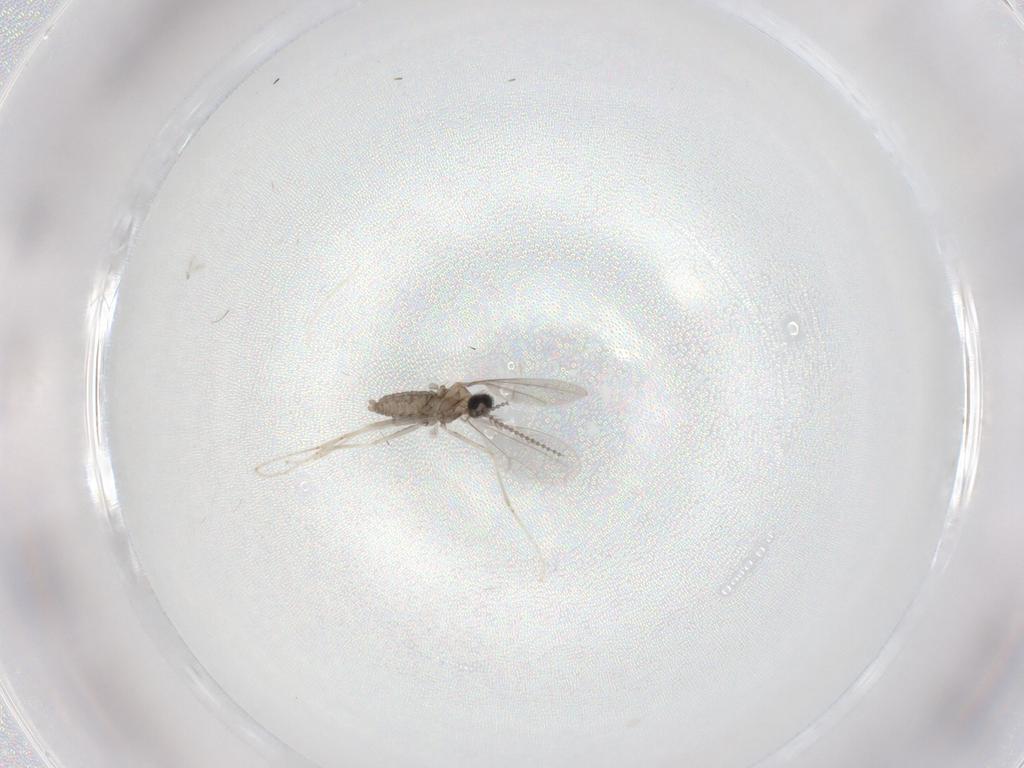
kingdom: Animalia
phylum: Arthropoda
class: Insecta
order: Diptera
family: Cecidomyiidae
